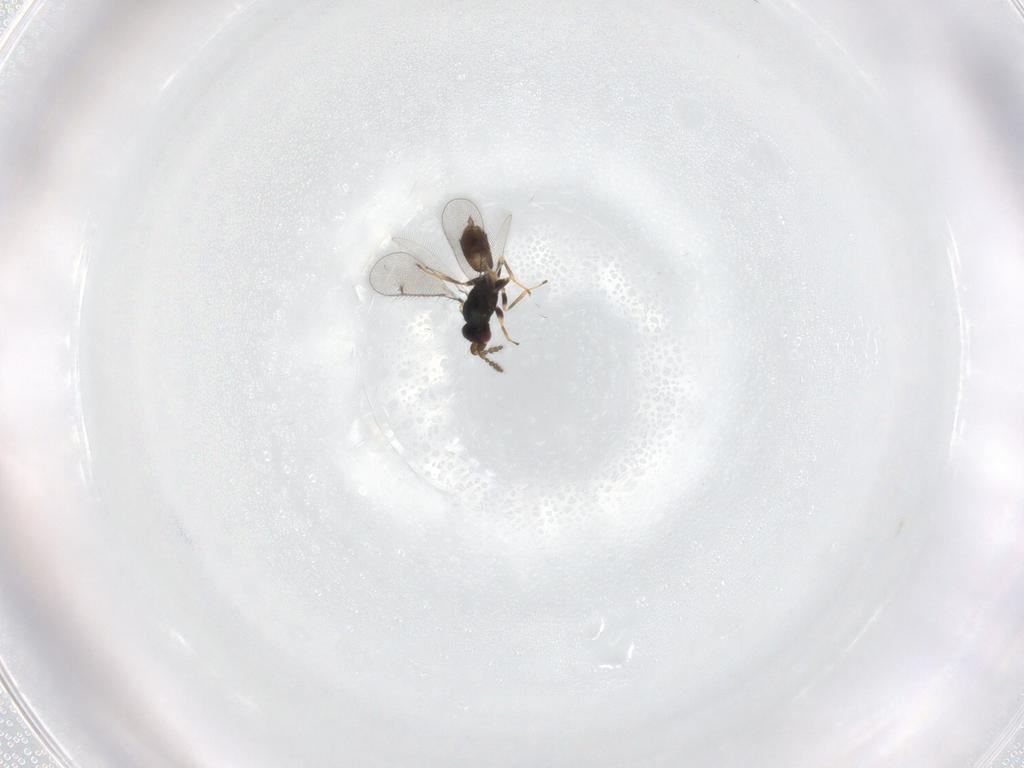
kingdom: Animalia
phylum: Arthropoda
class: Insecta
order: Hymenoptera
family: Eulophidae
